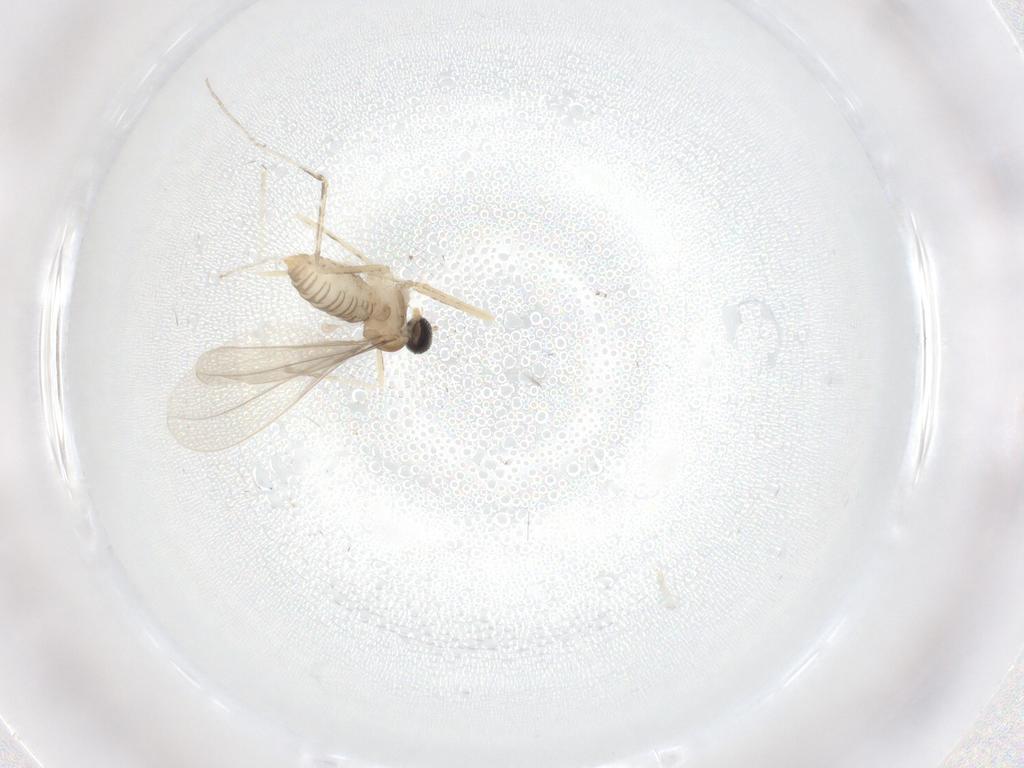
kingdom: Animalia
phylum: Arthropoda
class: Insecta
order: Diptera
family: Cecidomyiidae
